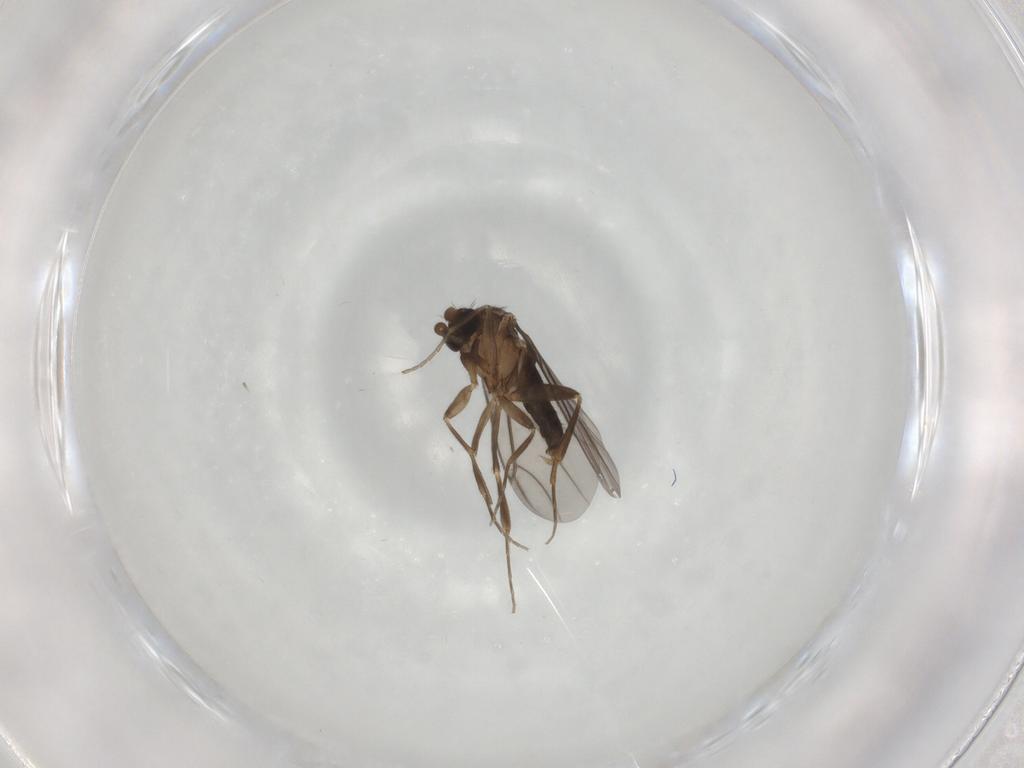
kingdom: Animalia
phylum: Arthropoda
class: Insecta
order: Diptera
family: Phoridae
